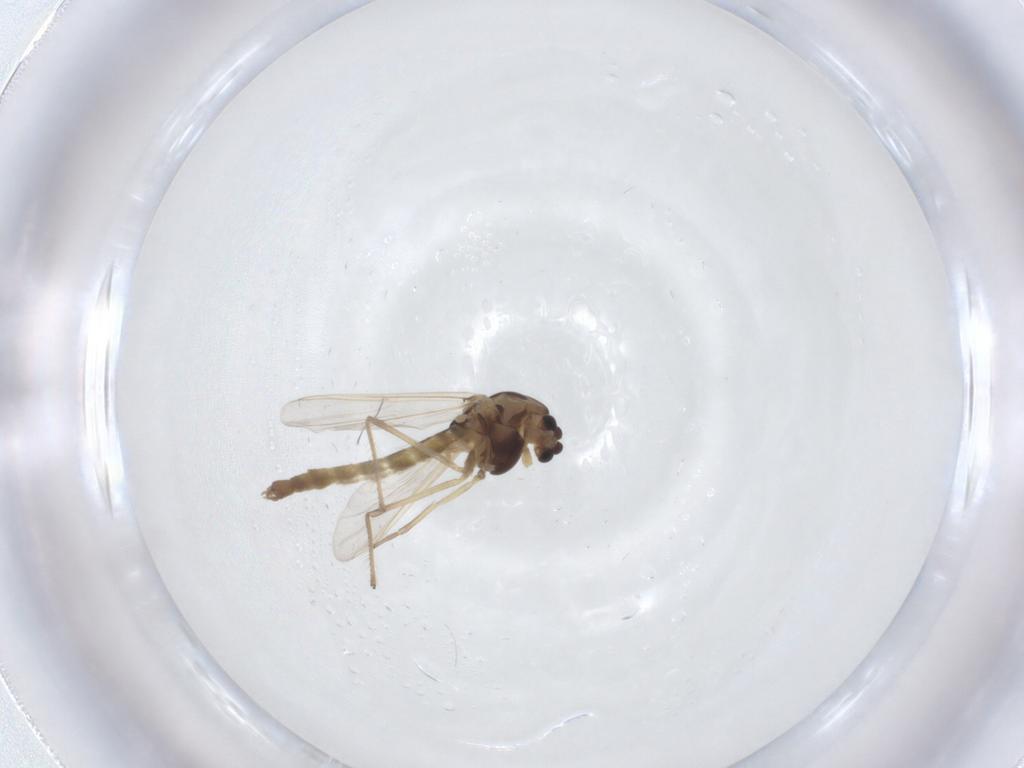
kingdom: Animalia
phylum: Arthropoda
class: Insecta
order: Diptera
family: Chironomidae
